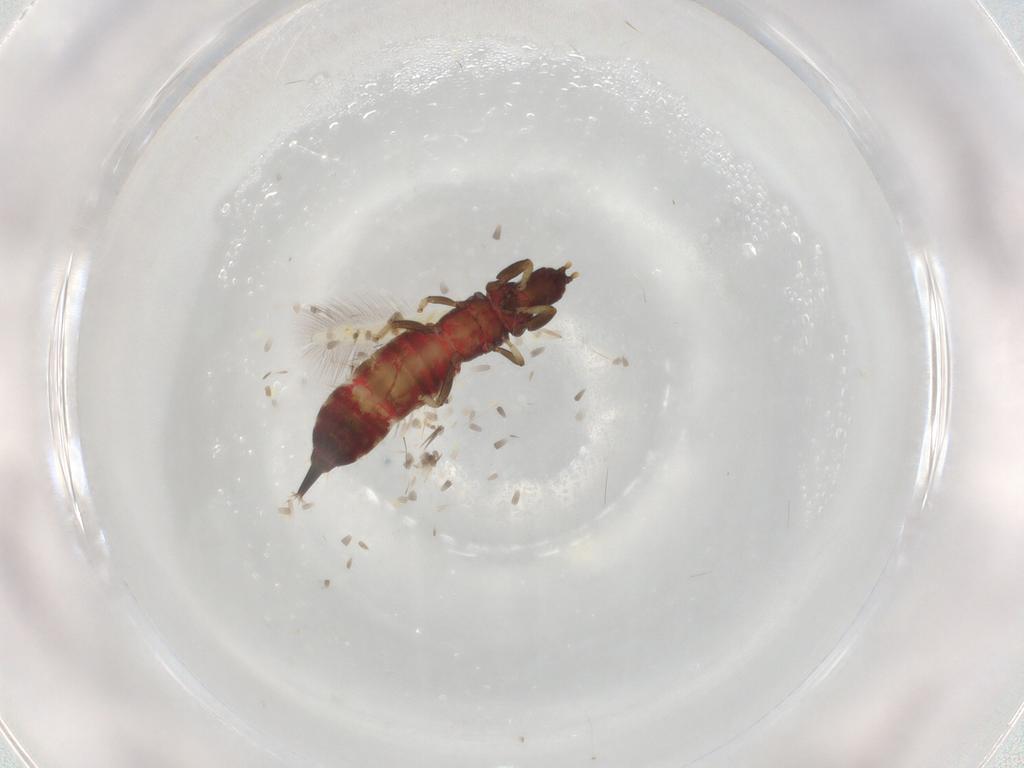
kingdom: Animalia
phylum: Arthropoda
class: Insecta
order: Thysanoptera
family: Phlaeothripidae
